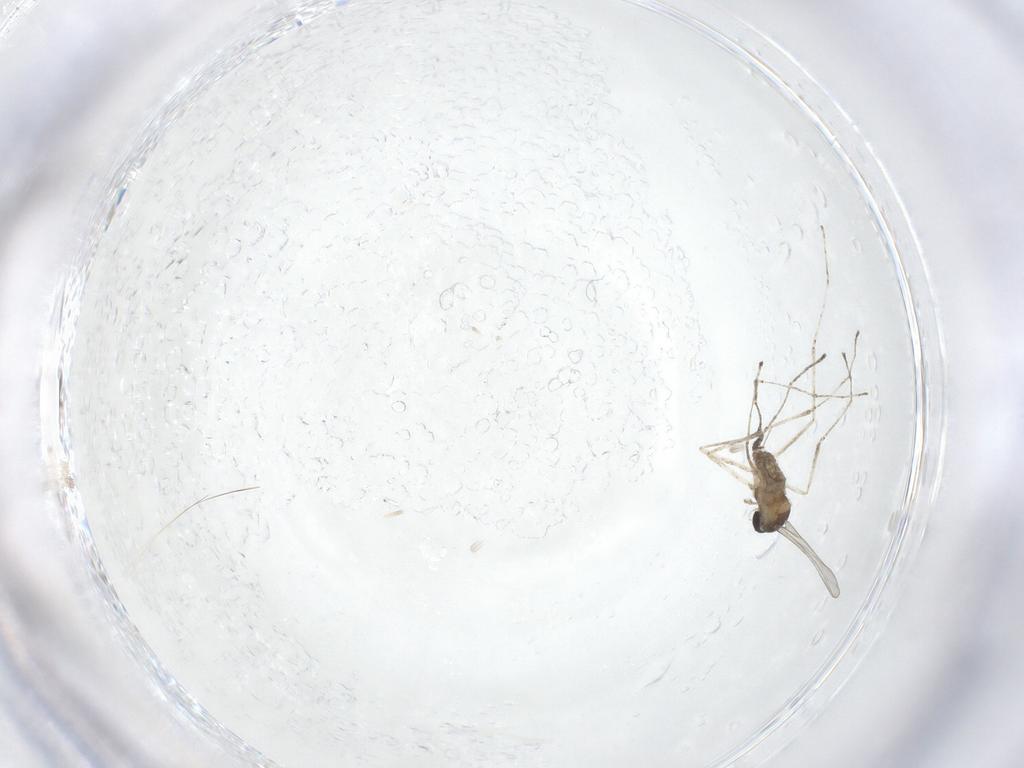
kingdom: Animalia
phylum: Arthropoda
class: Insecta
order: Diptera
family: Cecidomyiidae
